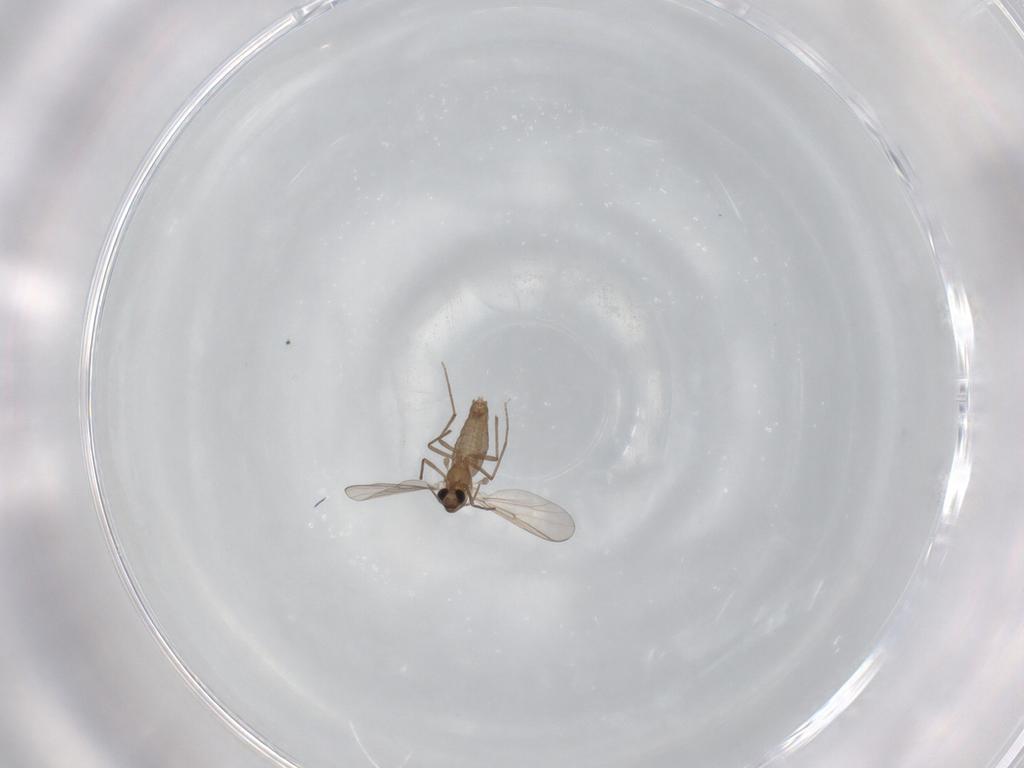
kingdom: Animalia
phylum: Arthropoda
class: Insecta
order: Diptera
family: Chironomidae
